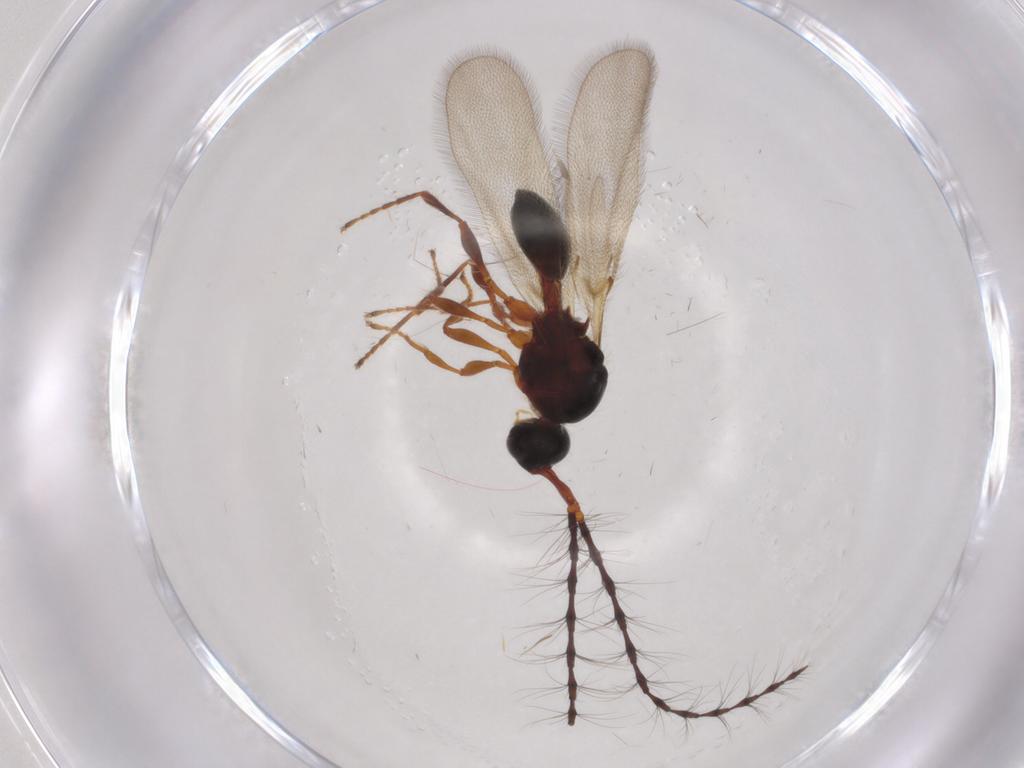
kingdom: Animalia
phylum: Arthropoda
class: Insecta
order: Hymenoptera
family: Diapriidae
